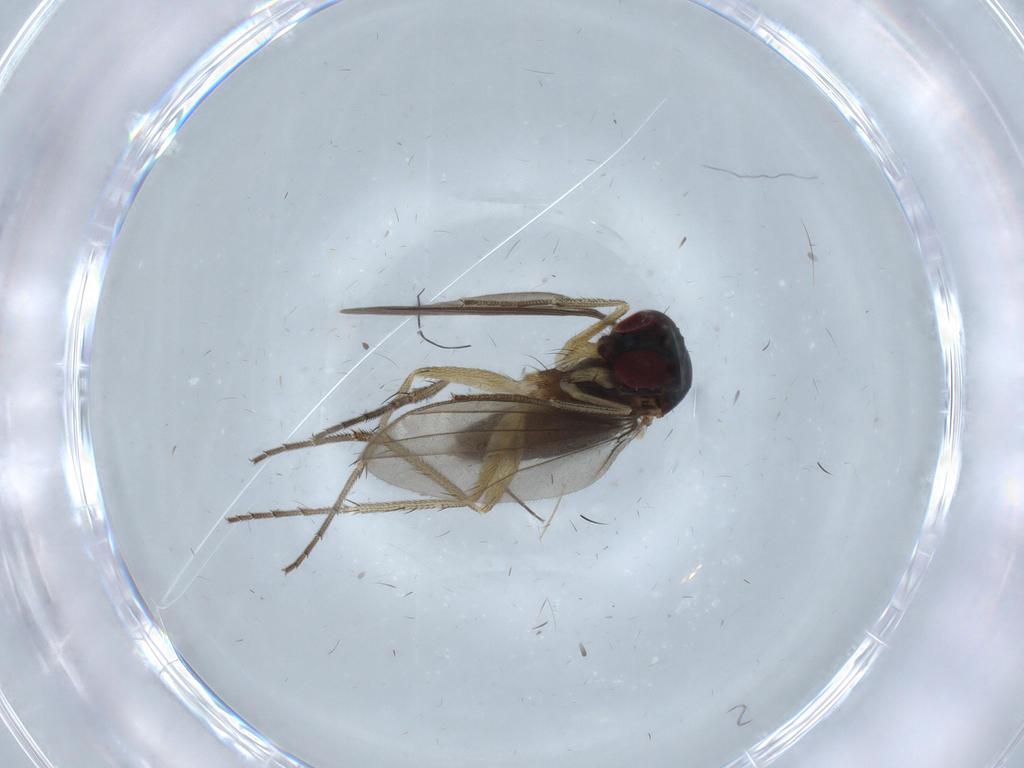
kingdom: Animalia
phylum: Arthropoda
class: Insecta
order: Diptera
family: Dolichopodidae
